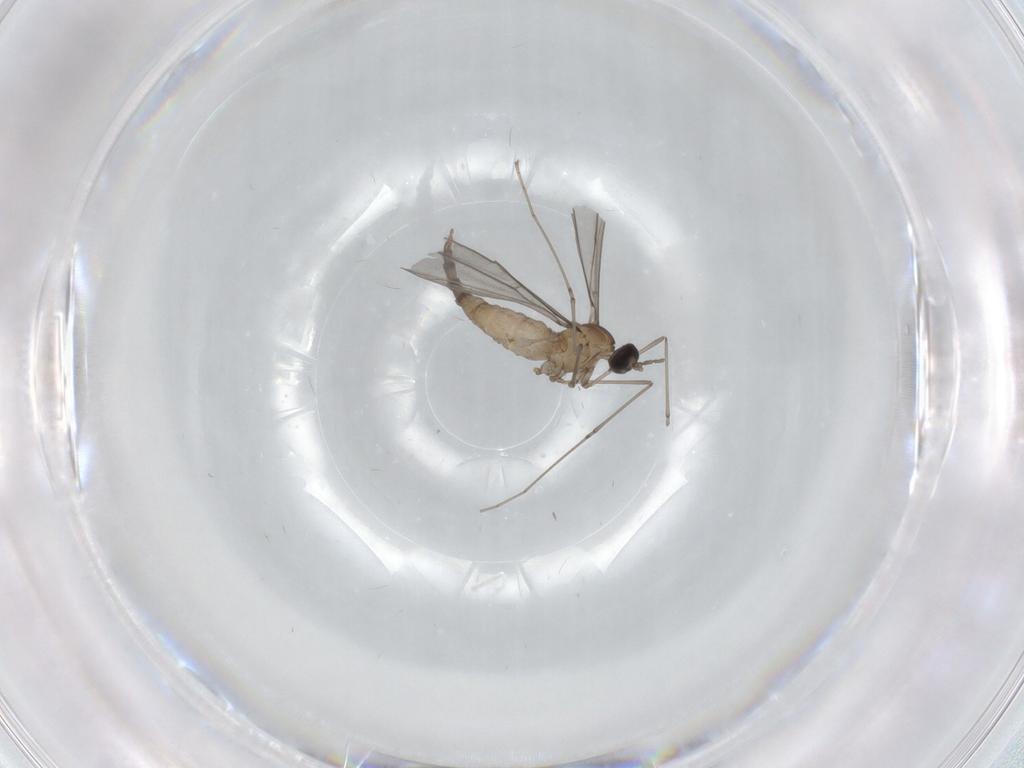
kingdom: Animalia
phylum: Arthropoda
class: Insecta
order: Diptera
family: Cecidomyiidae
